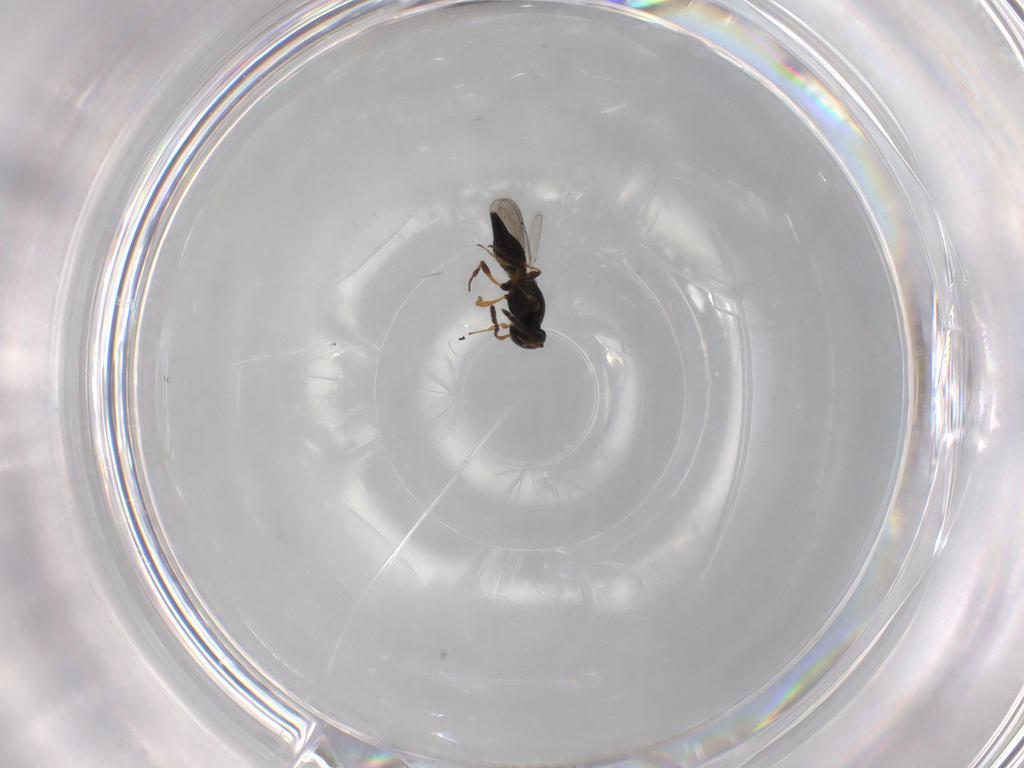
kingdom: Animalia
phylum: Arthropoda
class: Insecta
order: Hymenoptera
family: Platygastridae
